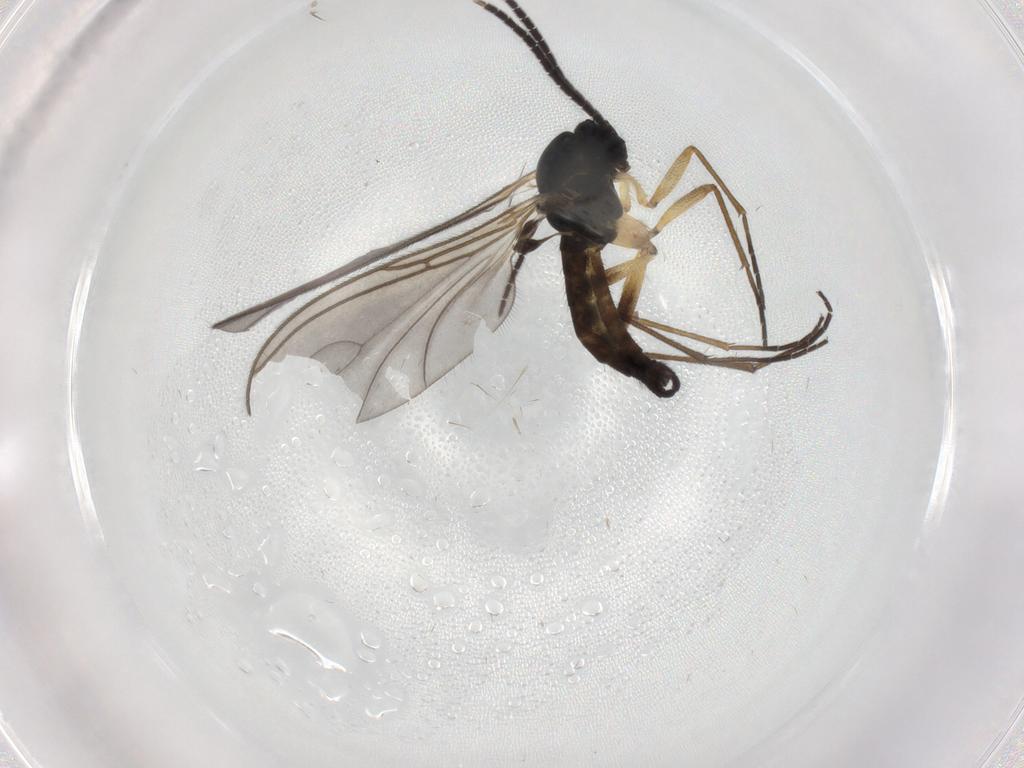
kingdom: Animalia
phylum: Arthropoda
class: Insecta
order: Diptera
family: Sciaridae
